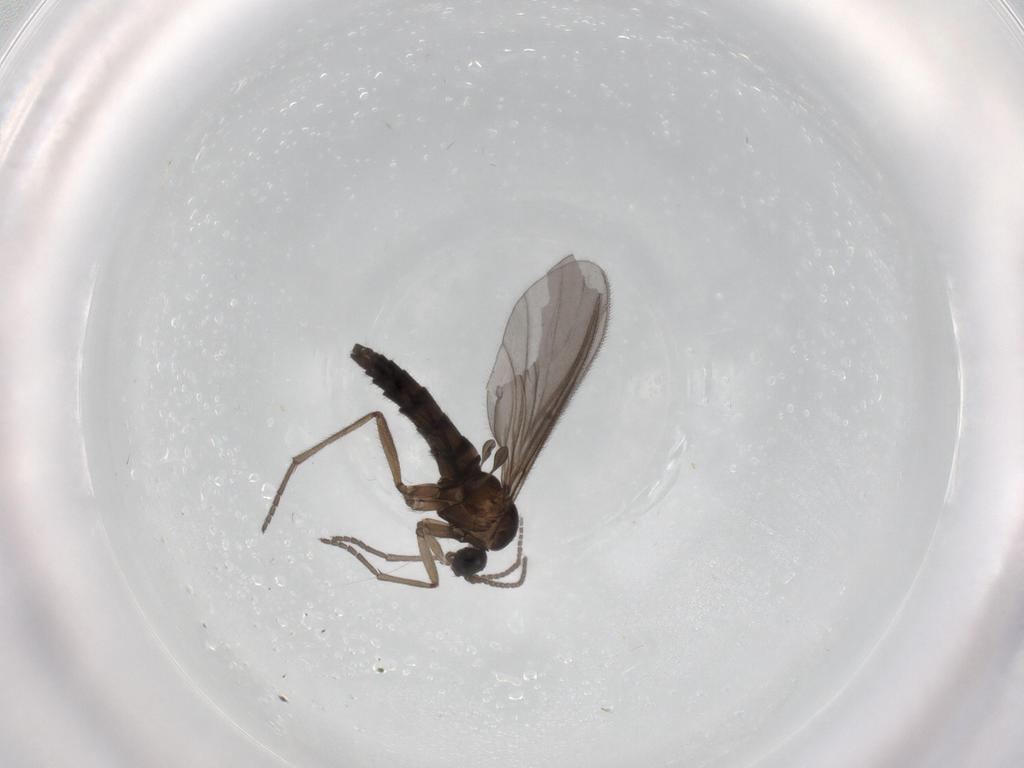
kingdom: Animalia
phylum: Arthropoda
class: Insecta
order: Diptera
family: Sciaridae
